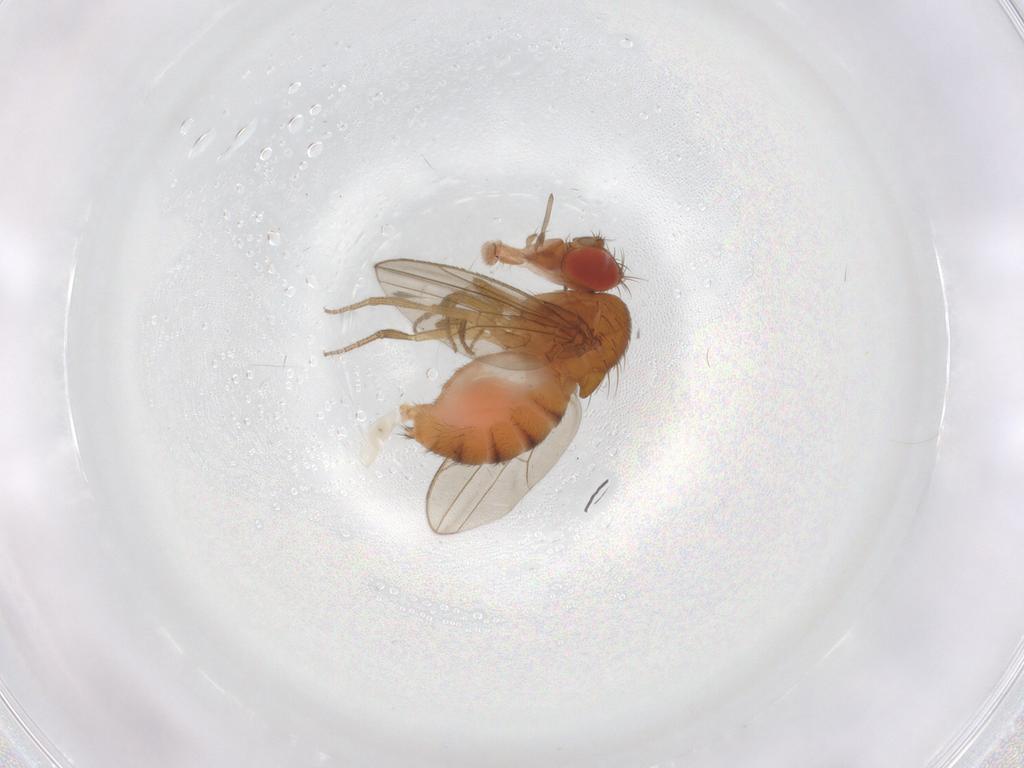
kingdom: Animalia
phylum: Arthropoda
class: Insecta
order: Diptera
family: Drosophilidae
